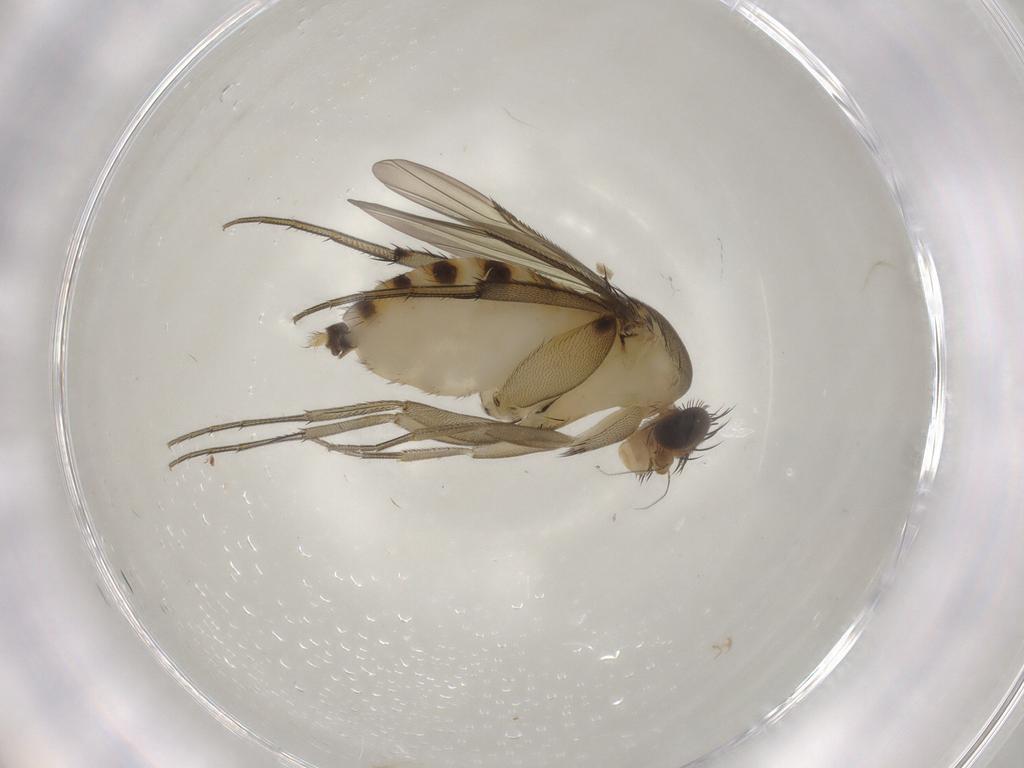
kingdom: Animalia
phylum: Arthropoda
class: Insecta
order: Diptera
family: Phoridae
